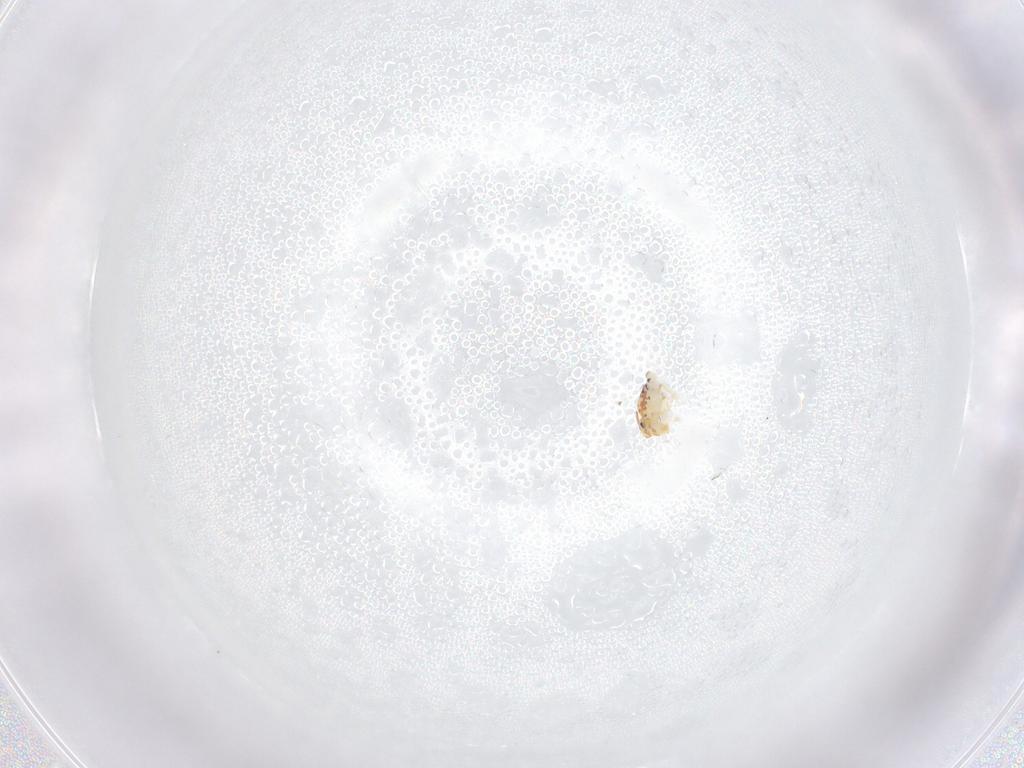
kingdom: Animalia
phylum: Arthropoda
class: Collembola
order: Symphypleona
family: Bourletiellidae
